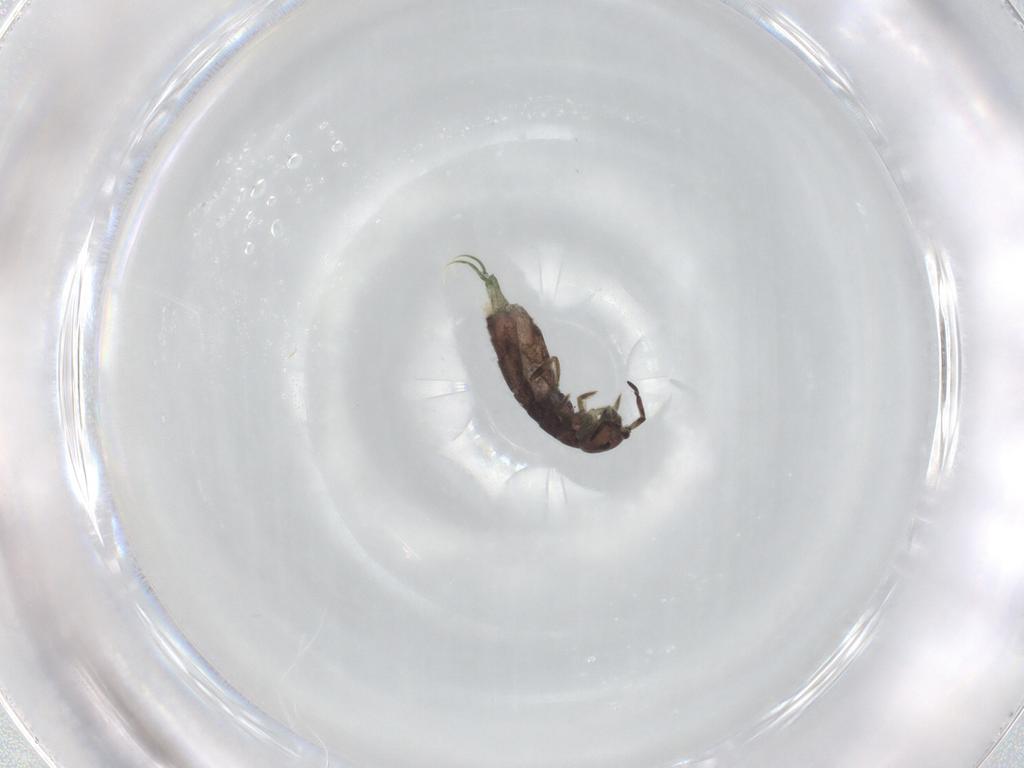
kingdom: Animalia
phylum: Arthropoda
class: Collembola
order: Entomobryomorpha
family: Isotomidae
